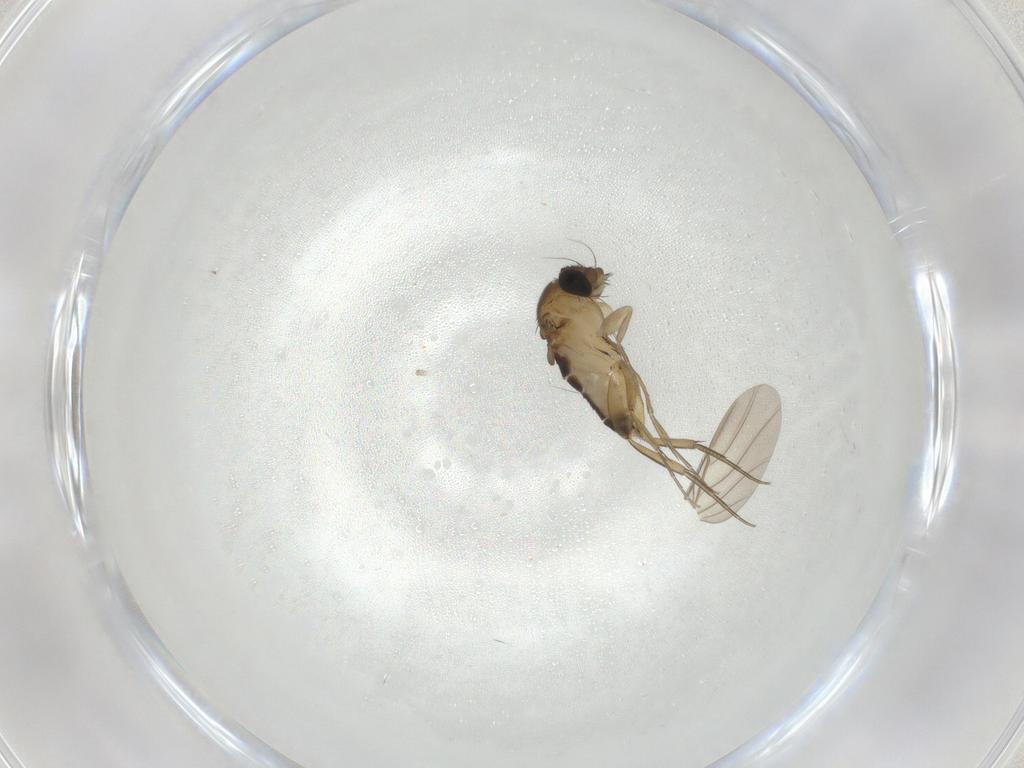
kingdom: Animalia
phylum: Arthropoda
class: Insecta
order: Diptera
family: Phoridae
